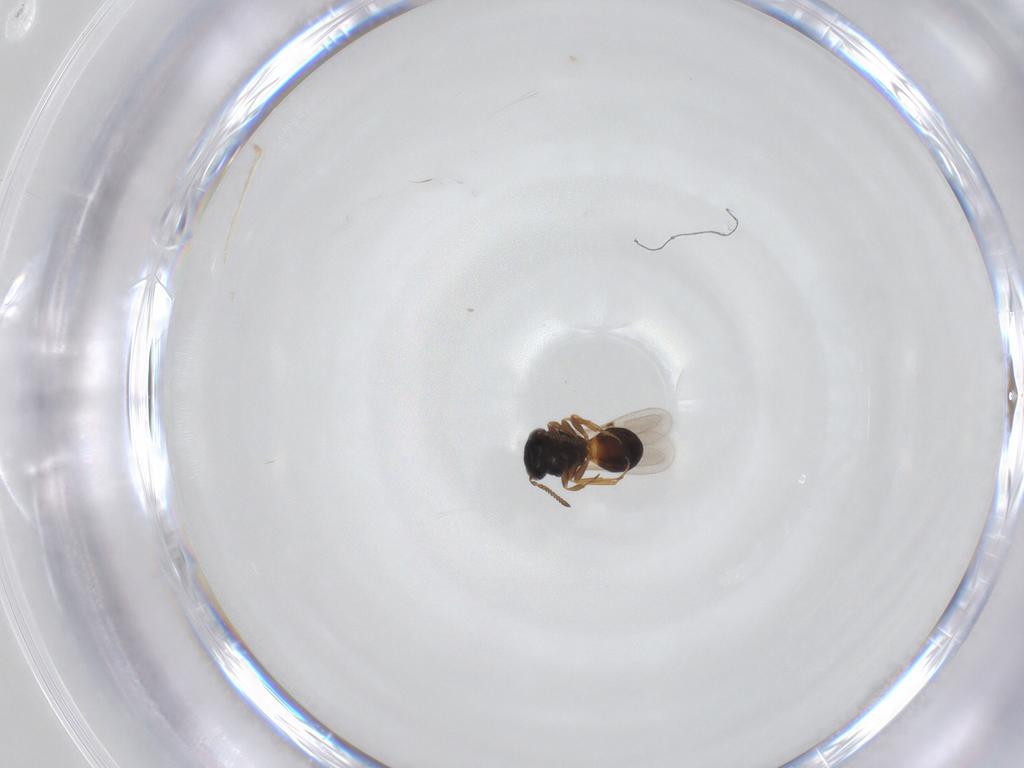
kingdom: Animalia
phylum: Arthropoda
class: Insecta
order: Hymenoptera
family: Scelionidae
